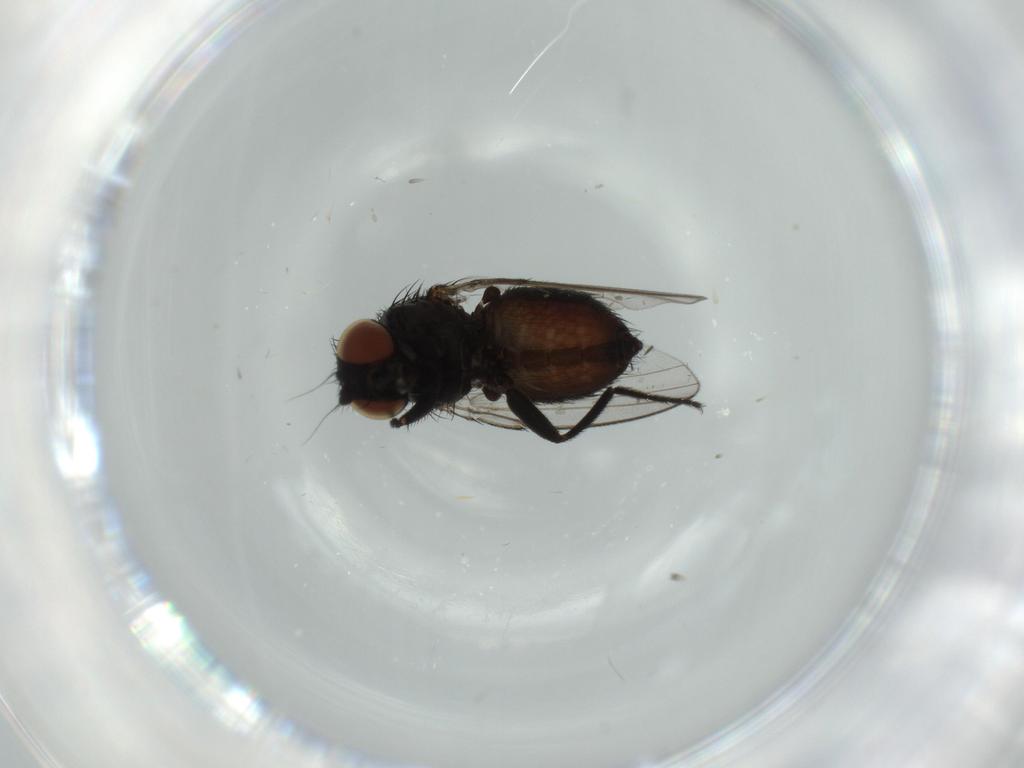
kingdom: Animalia
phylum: Arthropoda
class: Insecta
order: Diptera
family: Milichiidae
